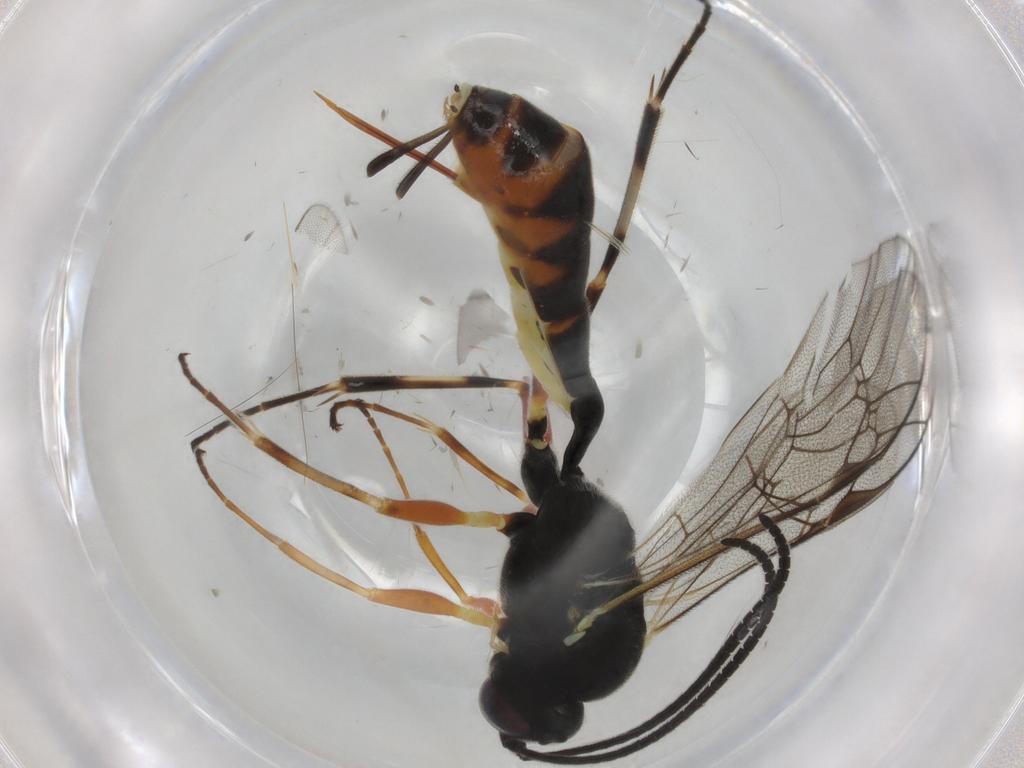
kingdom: Animalia
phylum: Arthropoda
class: Insecta
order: Hymenoptera
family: Ichneumonidae
